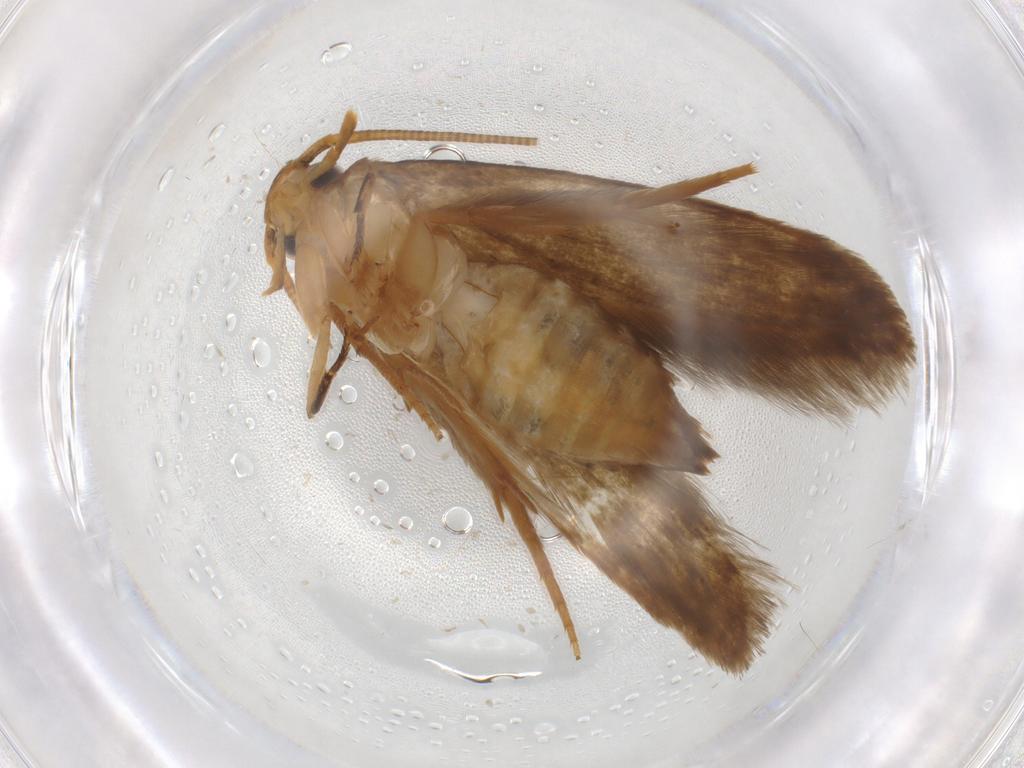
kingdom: Animalia
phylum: Arthropoda
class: Insecta
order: Lepidoptera
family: Tineidae
